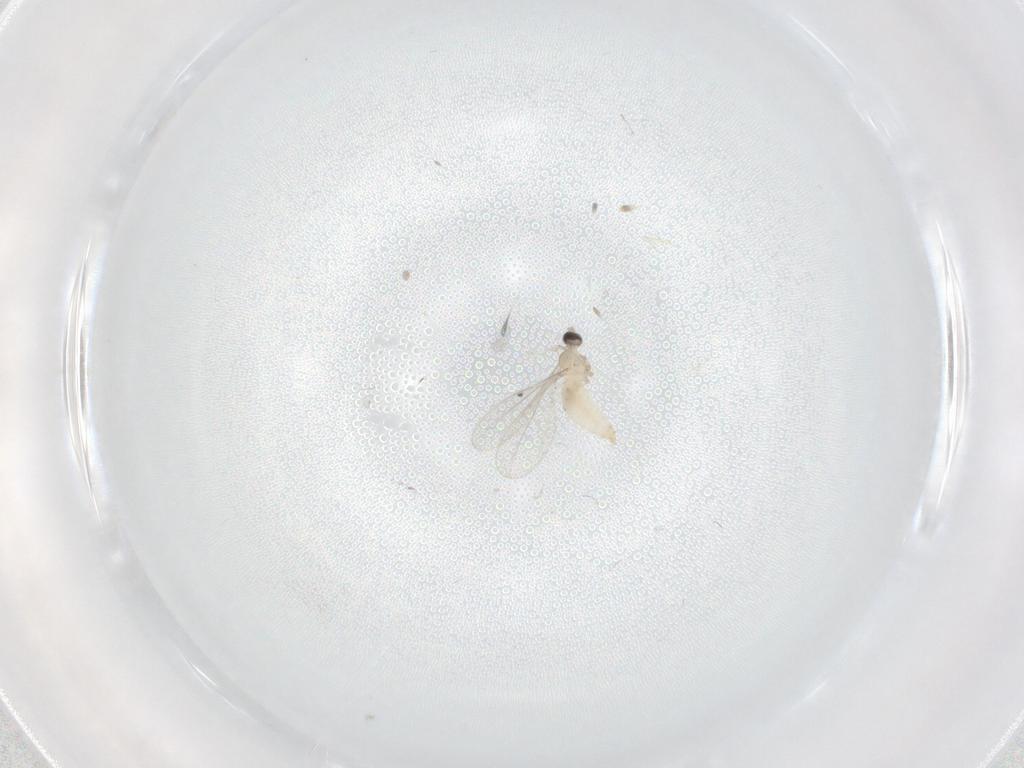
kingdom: Animalia
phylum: Arthropoda
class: Insecta
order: Diptera
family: Cecidomyiidae
